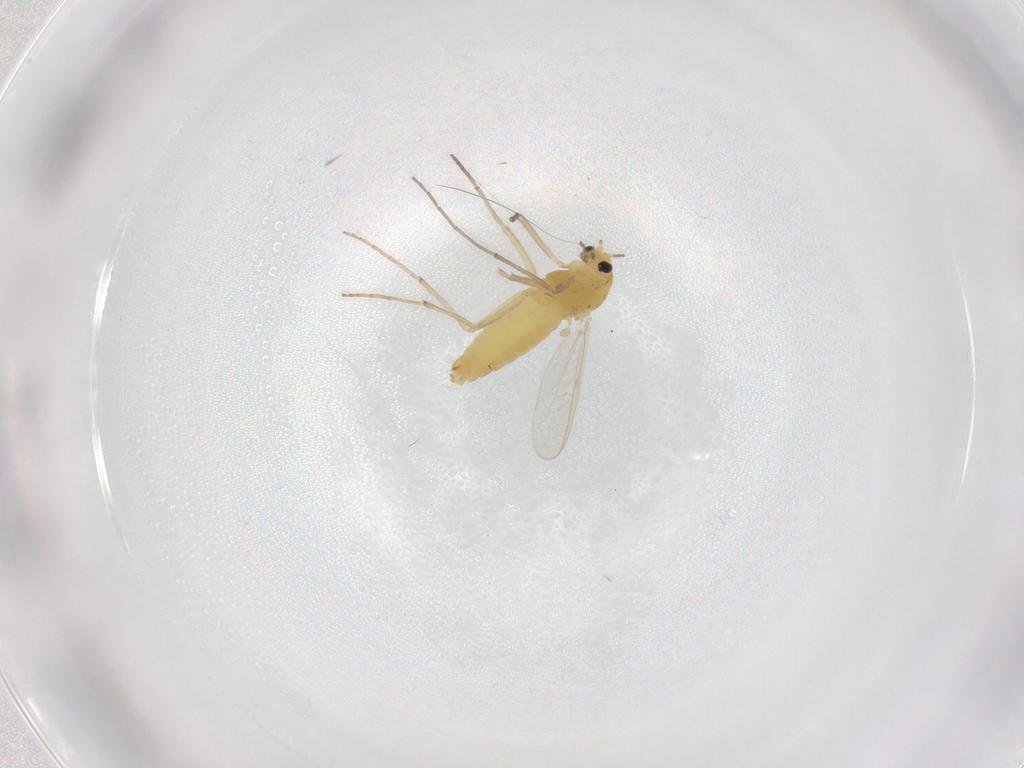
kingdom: Animalia
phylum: Arthropoda
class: Insecta
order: Diptera
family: Chironomidae
